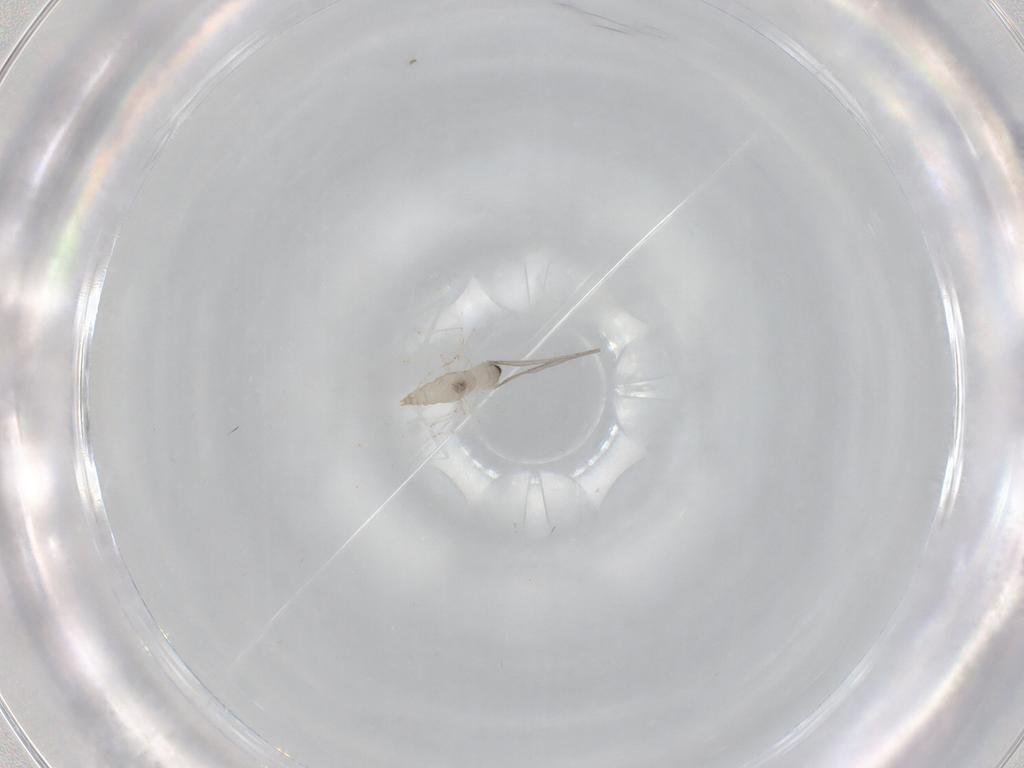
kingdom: Animalia
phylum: Arthropoda
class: Insecta
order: Diptera
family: Cecidomyiidae
